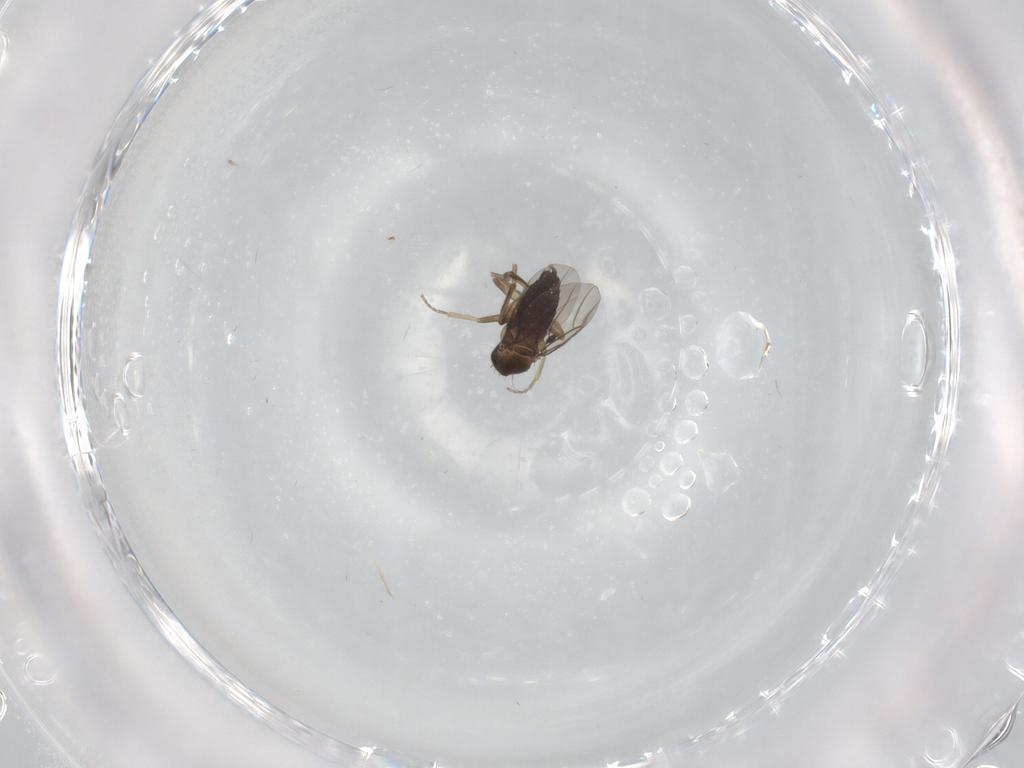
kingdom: Animalia
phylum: Arthropoda
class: Insecta
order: Diptera
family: Phoridae
